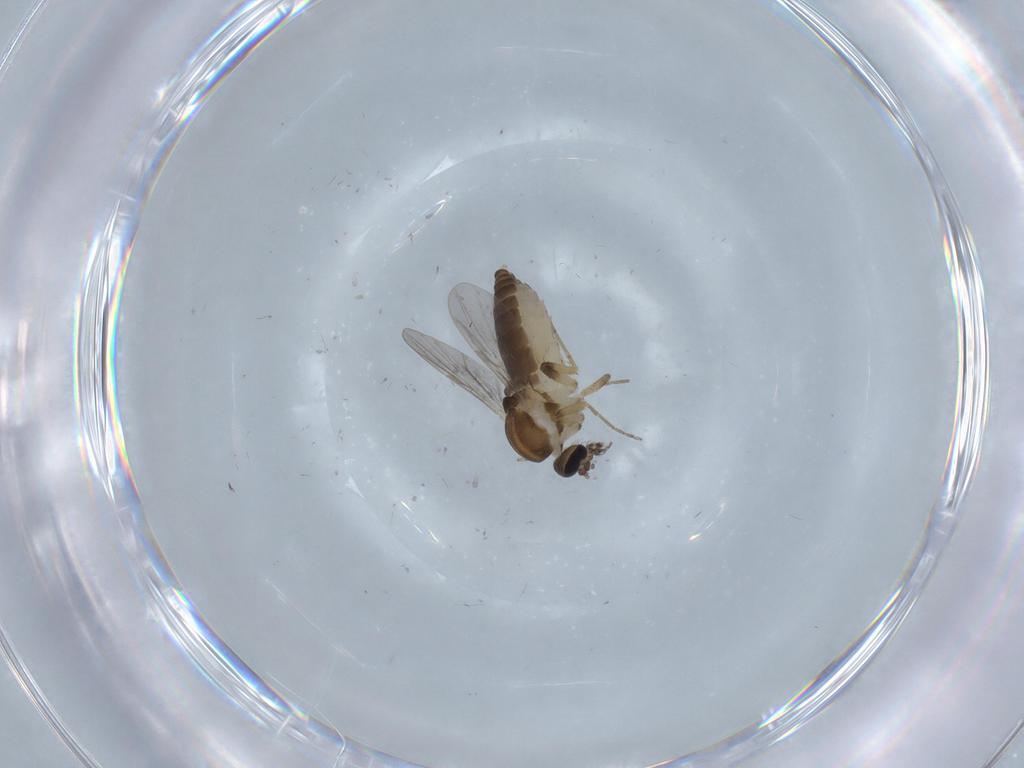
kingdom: Animalia
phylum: Arthropoda
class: Insecta
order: Diptera
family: Ceratopogonidae
